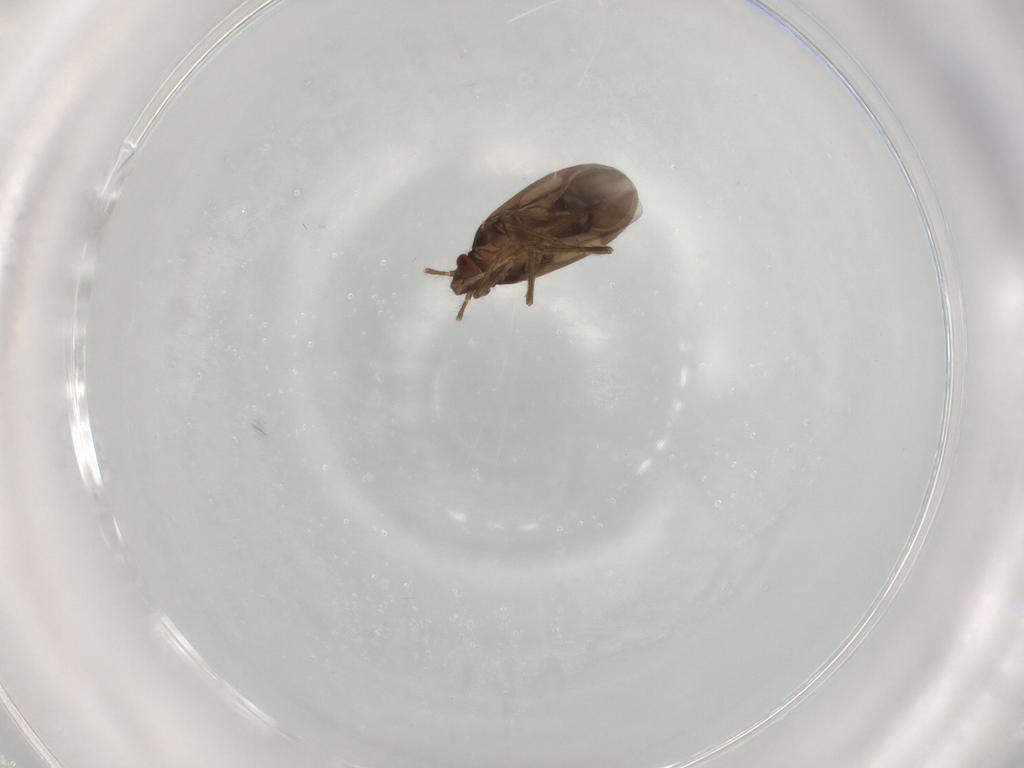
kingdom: Animalia
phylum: Arthropoda
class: Insecta
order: Hemiptera
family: Ceratocombidae
